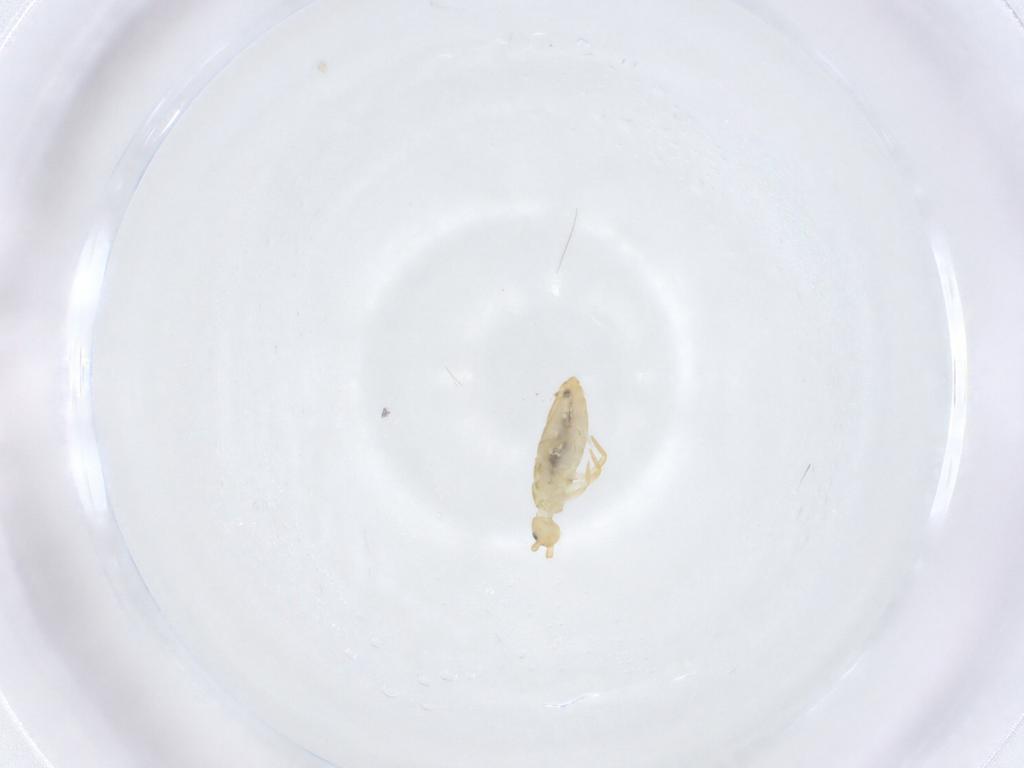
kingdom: Animalia
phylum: Arthropoda
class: Collembola
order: Entomobryomorpha
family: Entomobryidae
